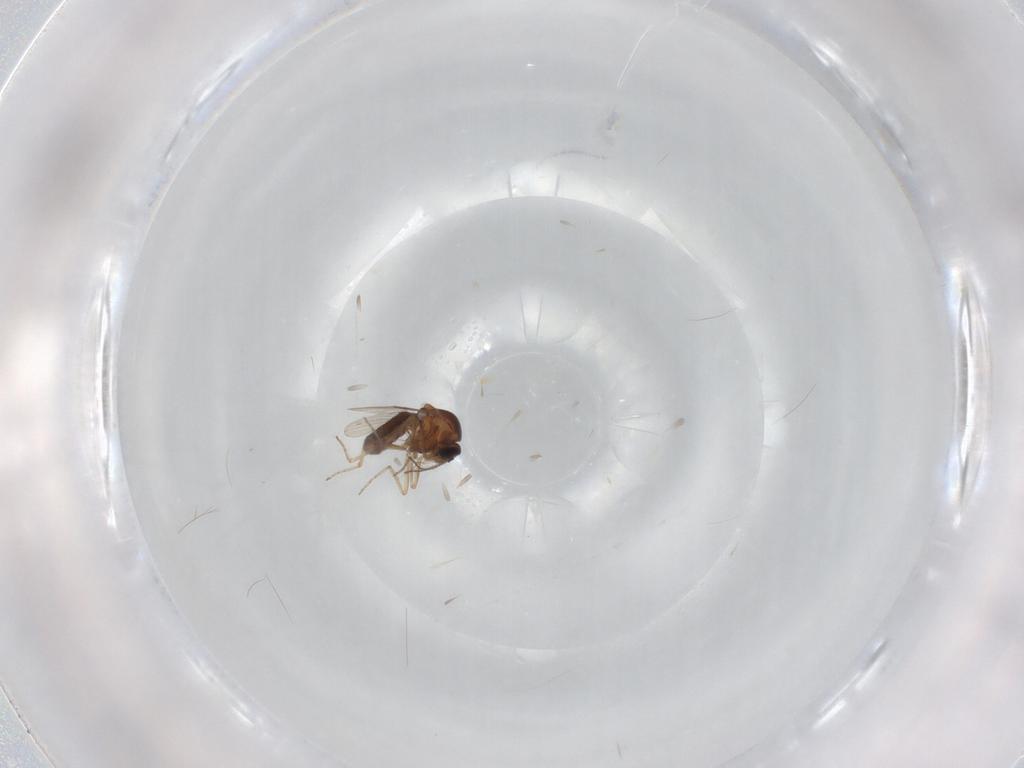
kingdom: Animalia
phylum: Arthropoda
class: Insecta
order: Diptera
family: Ceratopogonidae
